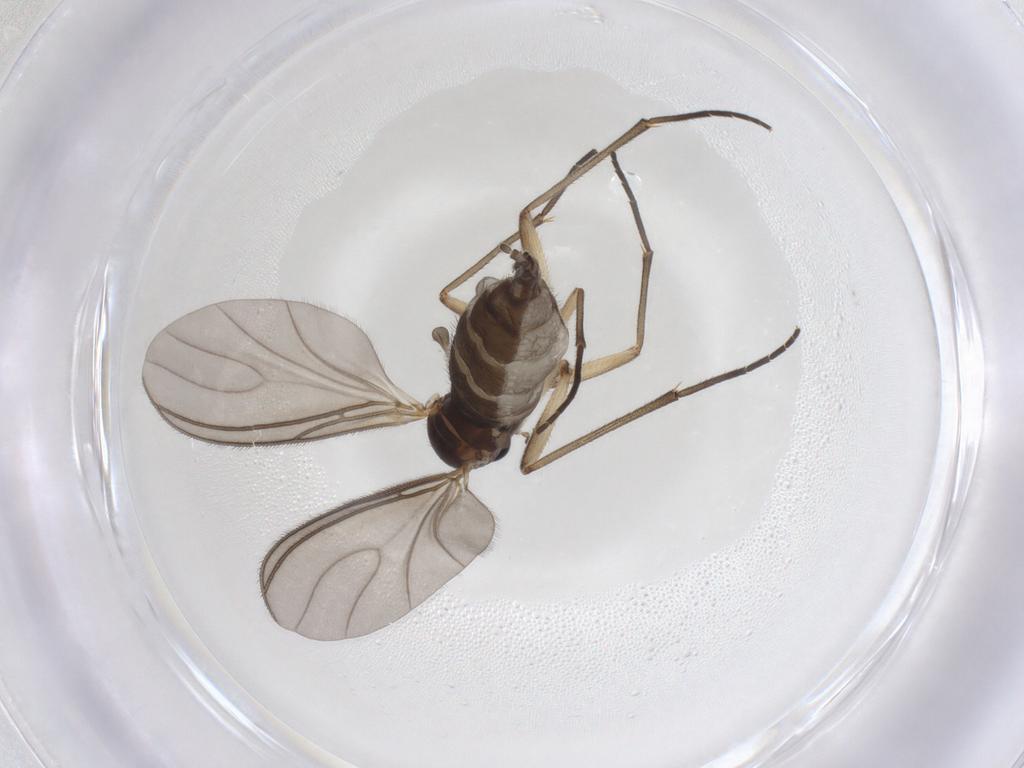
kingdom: Animalia
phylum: Arthropoda
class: Insecta
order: Diptera
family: Sciaridae
